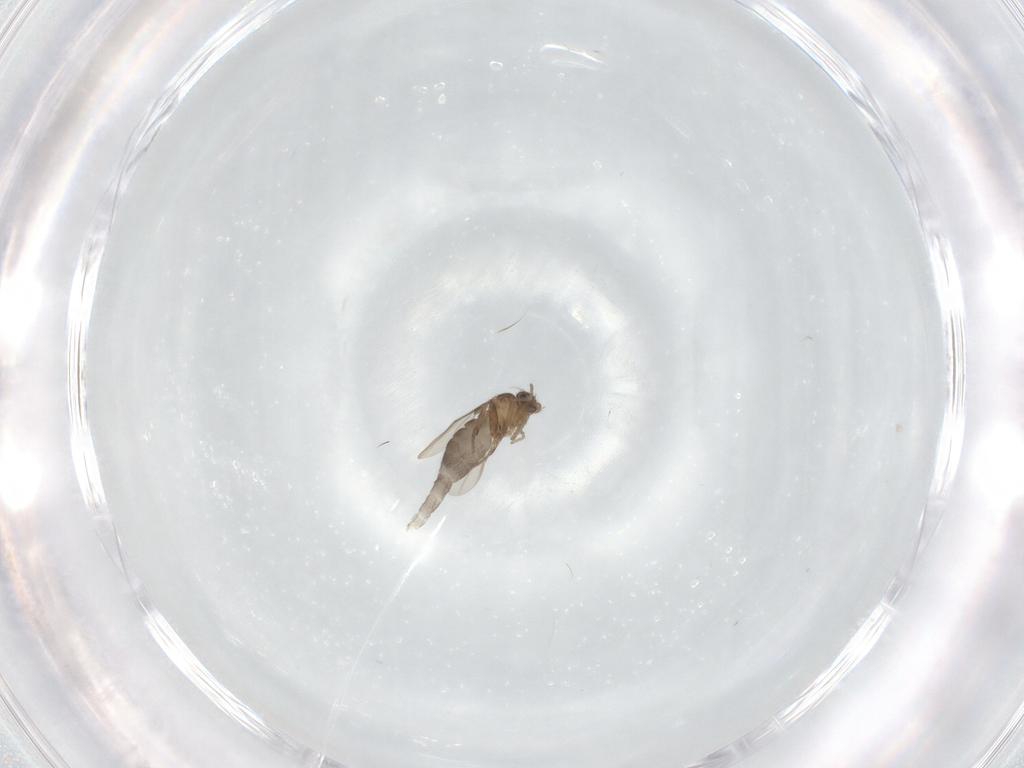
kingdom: Animalia
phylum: Arthropoda
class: Insecta
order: Diptera
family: Phoridae
